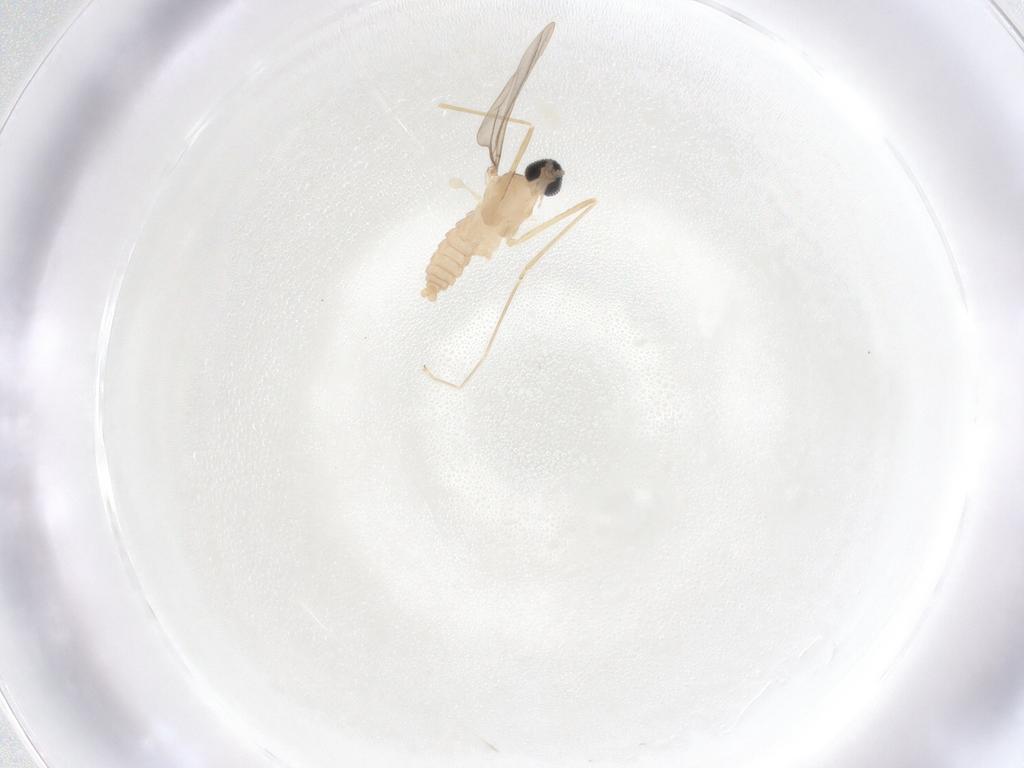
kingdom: Animalia
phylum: Arthropoda
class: Insecta
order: Diptera
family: Cecidomyiidae
